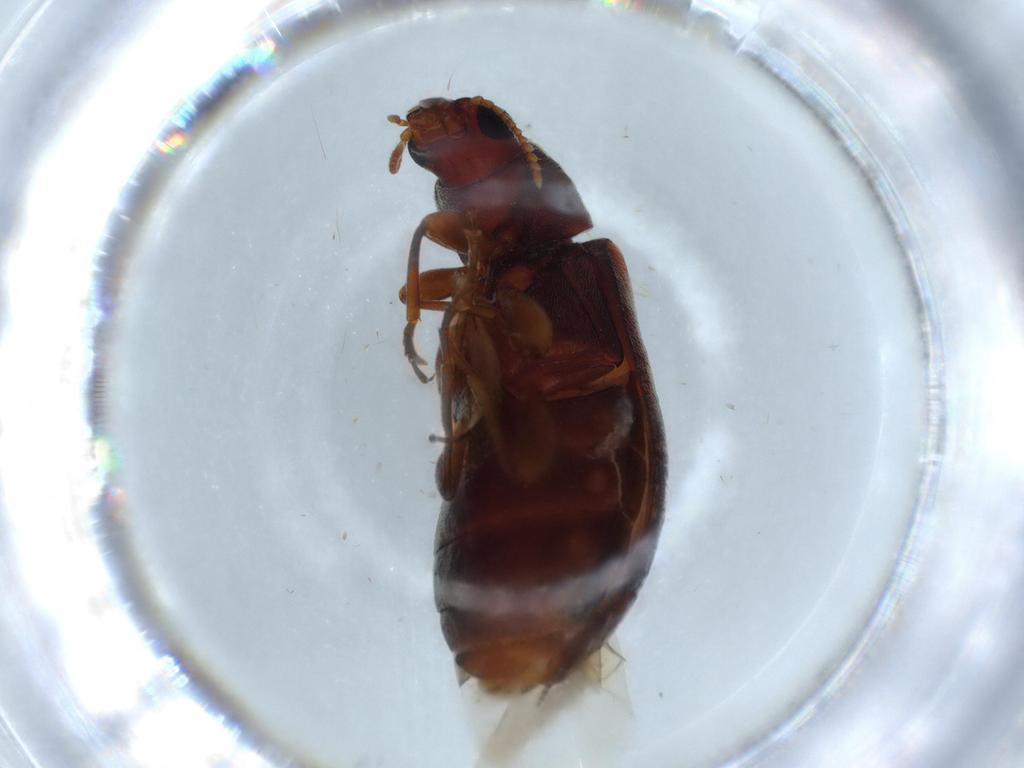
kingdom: Animalia
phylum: Arthropoda
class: Insecta
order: Coleoptera
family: Mycteridae
